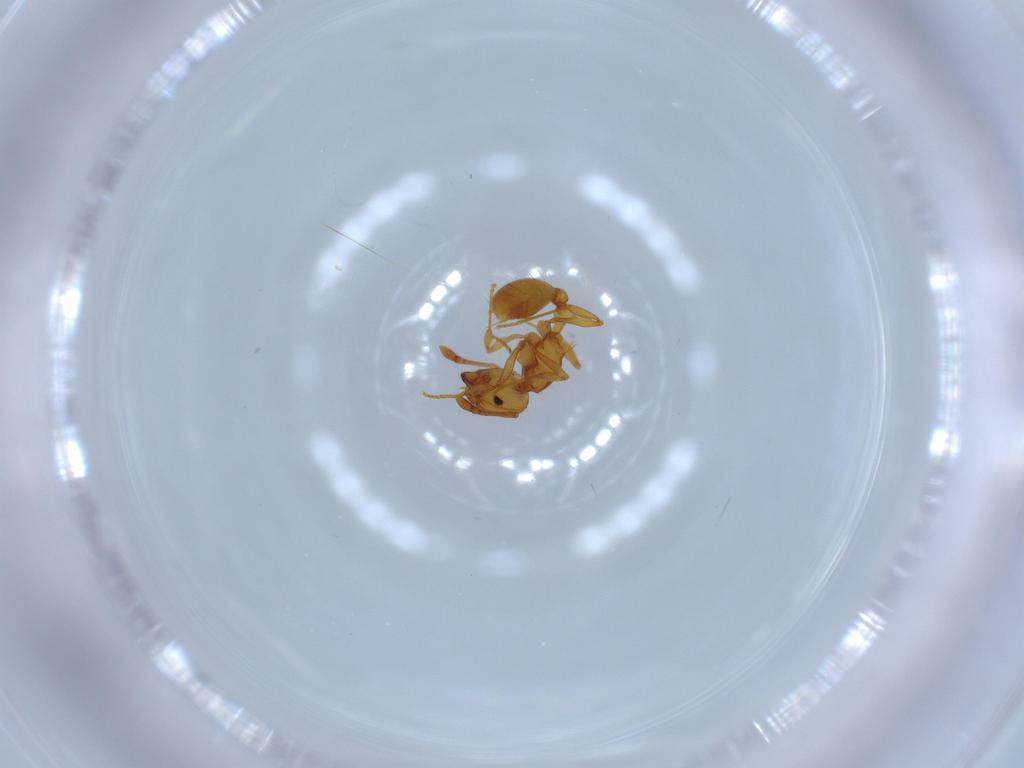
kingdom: Animalia
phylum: Arthropoda
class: Insecta
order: Hymenoptera
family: Formicidae
